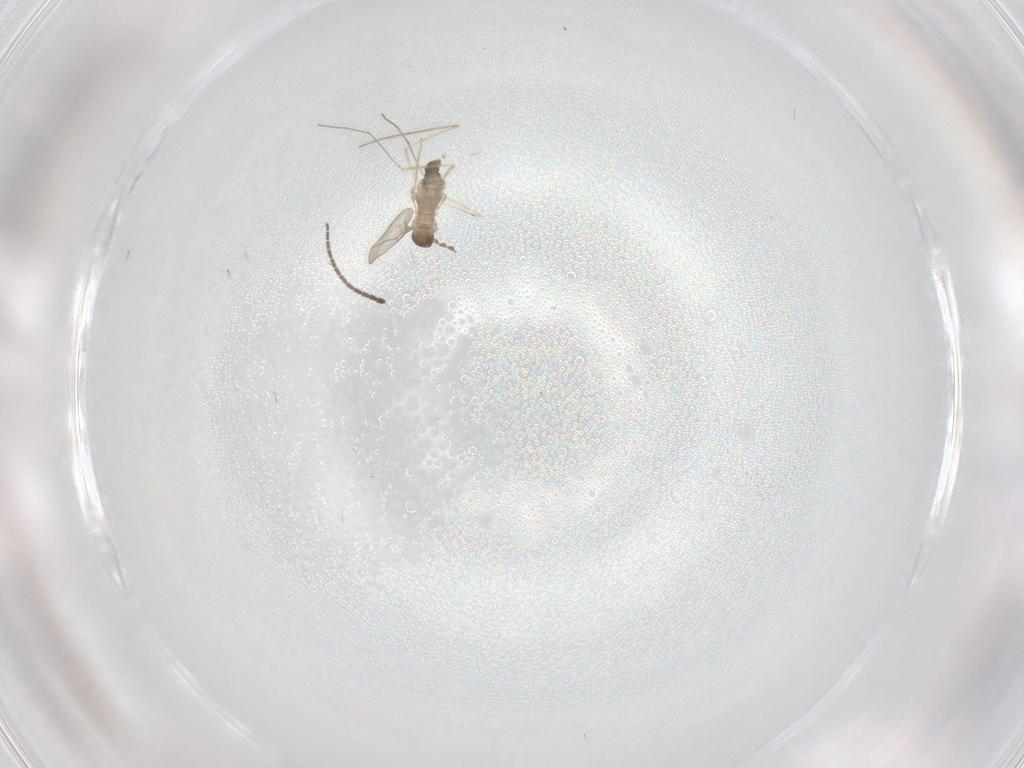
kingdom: Animalia
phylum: Arthropoda
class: Insecta
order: Diptera
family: Cecidomyiidae
